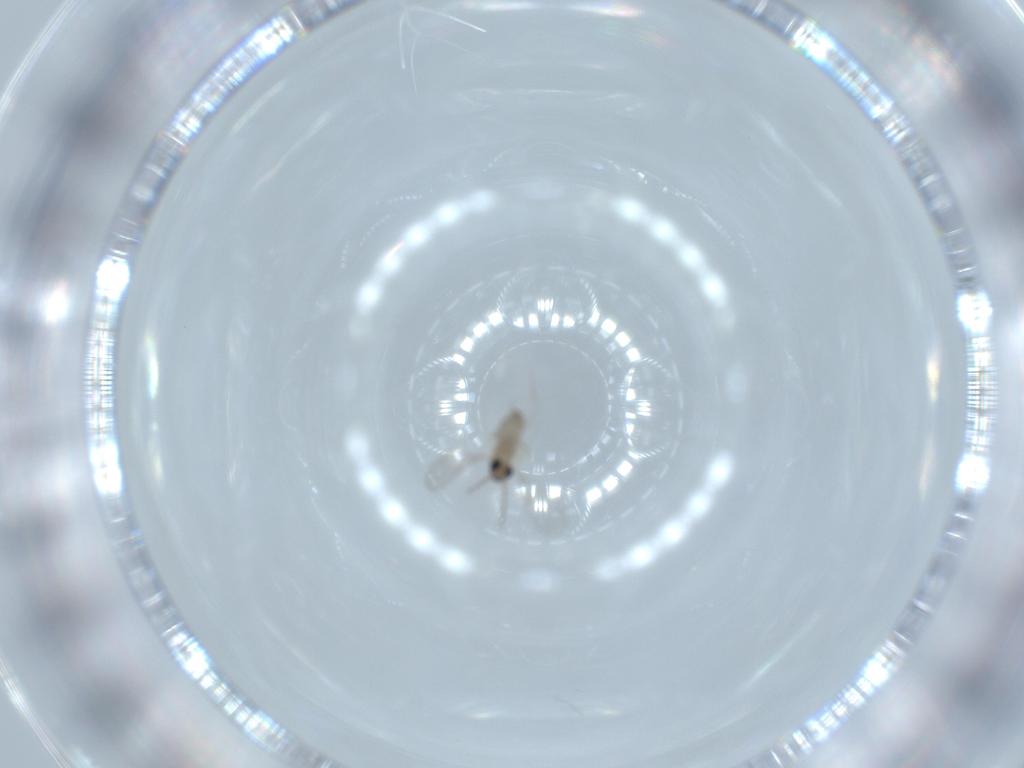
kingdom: Animalia
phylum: Arthropoda
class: Insecta
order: Diptera
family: Cecidomyiidae
